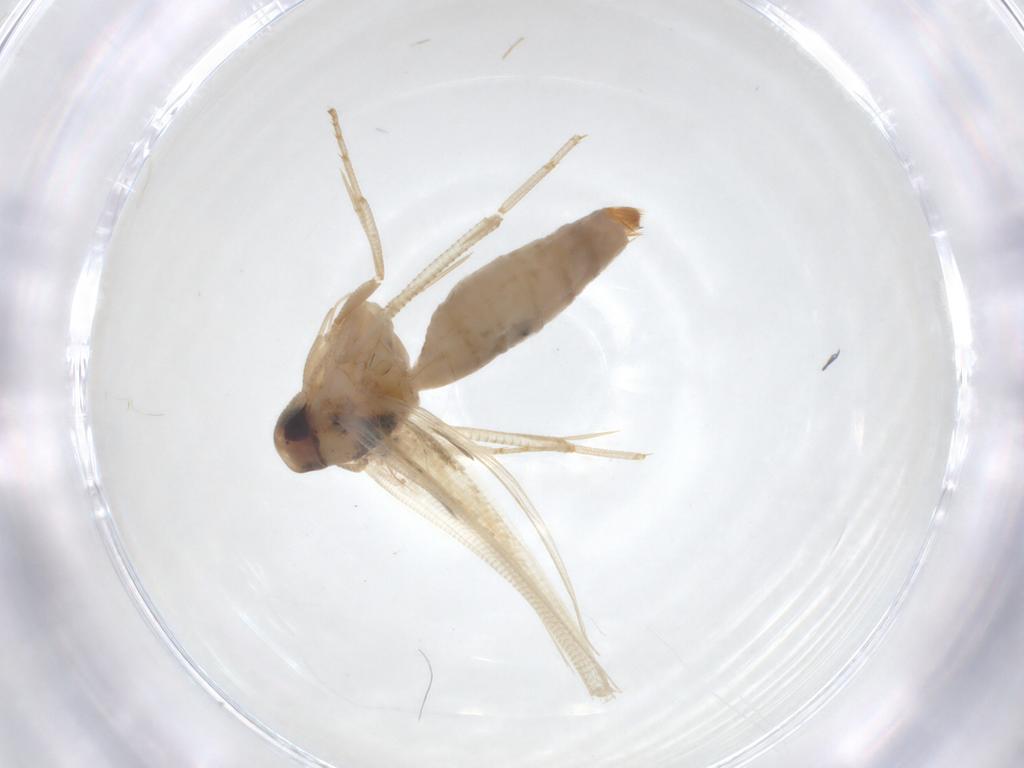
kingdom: Animalia
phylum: Arthropoda
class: Insecta
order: Lepidoptera
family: Cosmopterigidae
